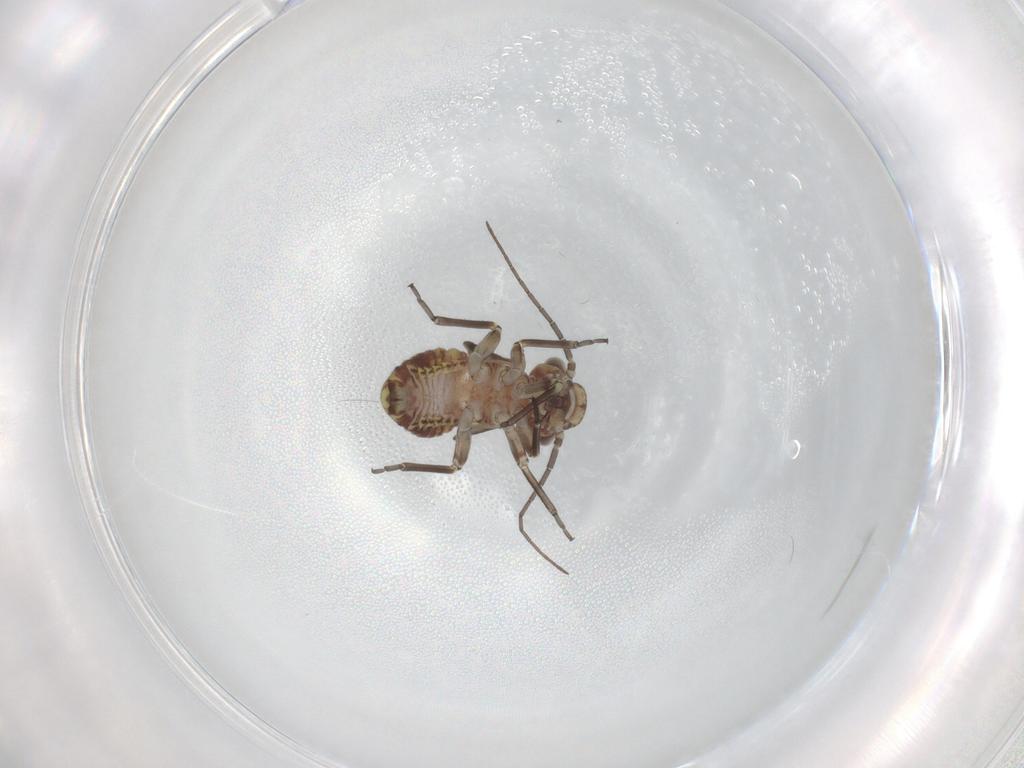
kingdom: Animalia
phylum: Arthropoda
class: Insecta
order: Psocodea
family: Psocidae
